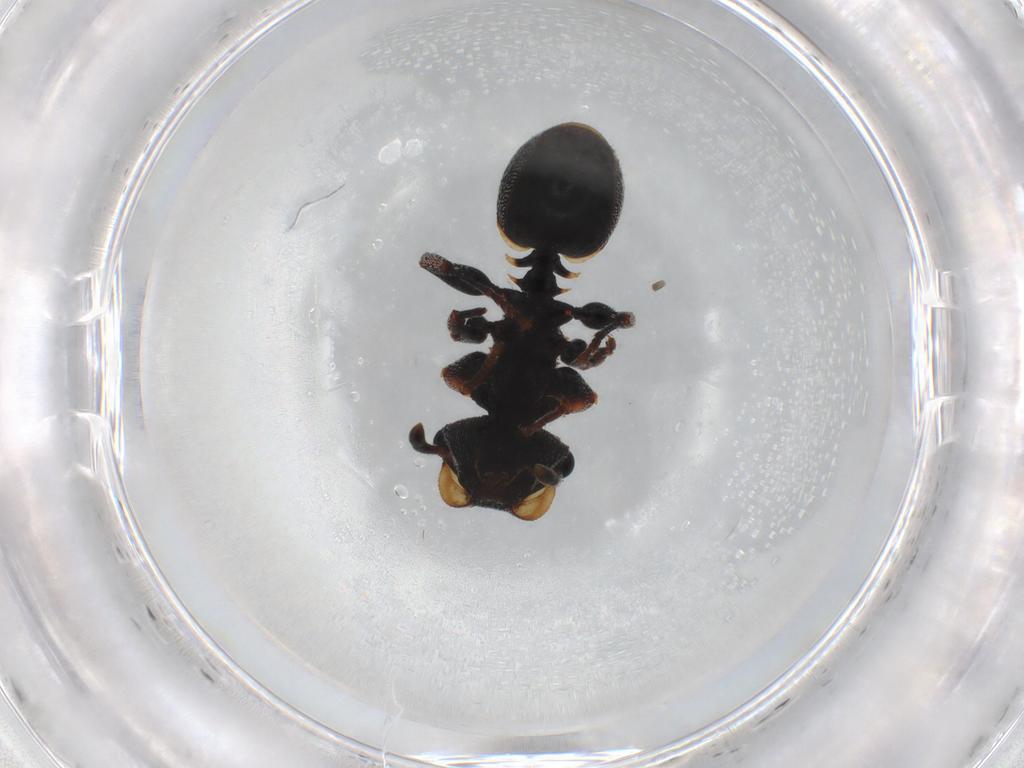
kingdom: Animalia
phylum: Arthropoda
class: Insecta
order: Hymenoptera
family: Formicidae
